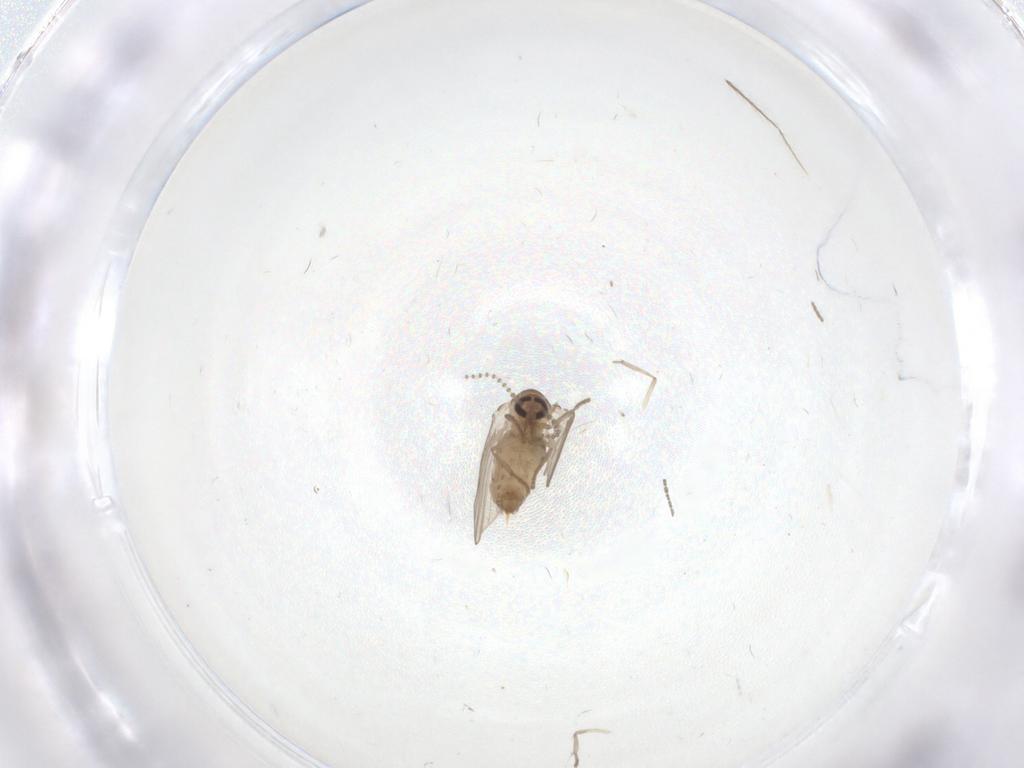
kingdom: Animalia
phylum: Arthropoda
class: Insecta
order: Diptera
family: Psychodidae
